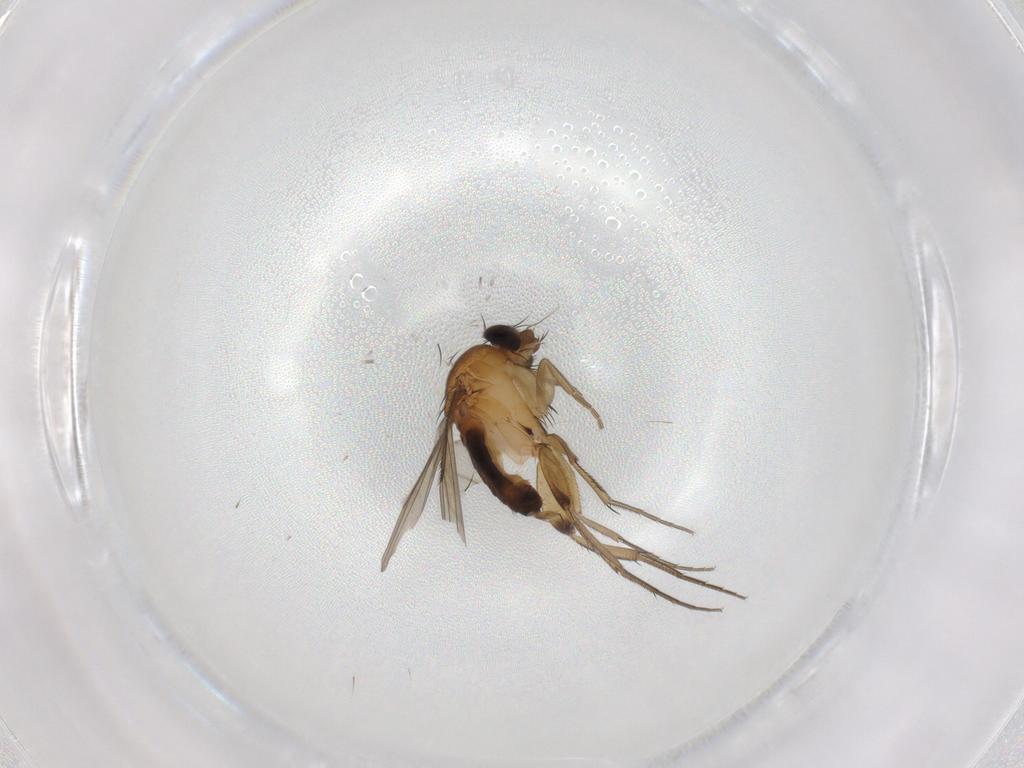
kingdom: Animalia
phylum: Arthropoda
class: Insecta
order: Diptera
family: Phoridae
